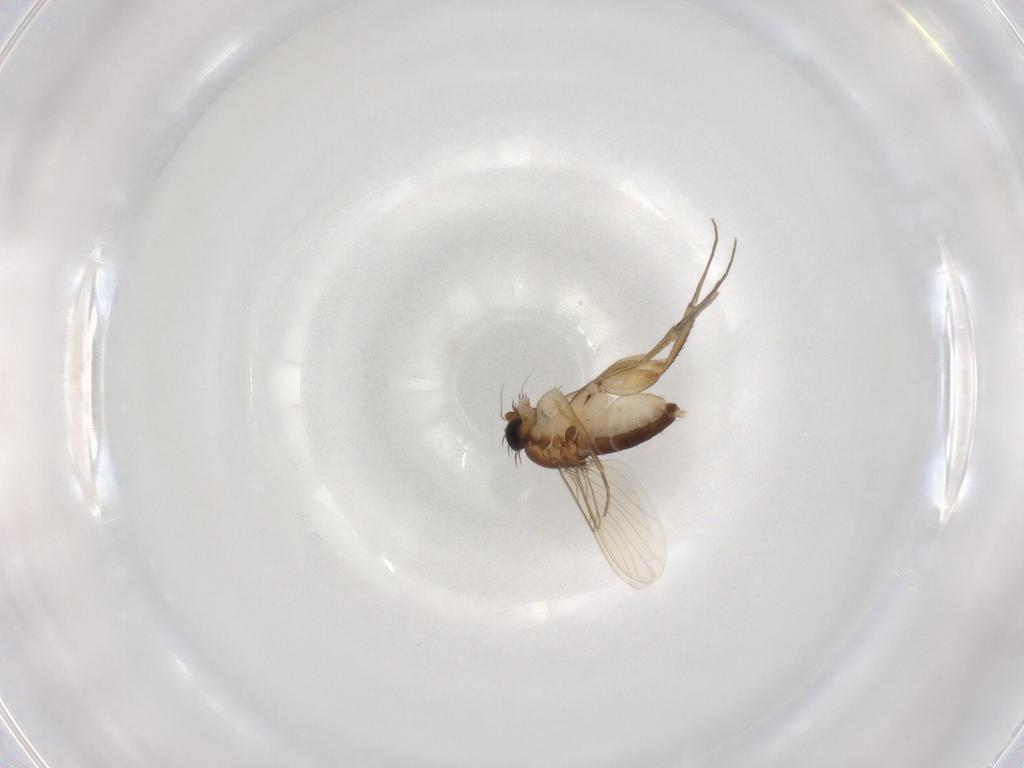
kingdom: Animalia
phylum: Arthropoda
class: Insecta
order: Diptera
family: Phoridae
